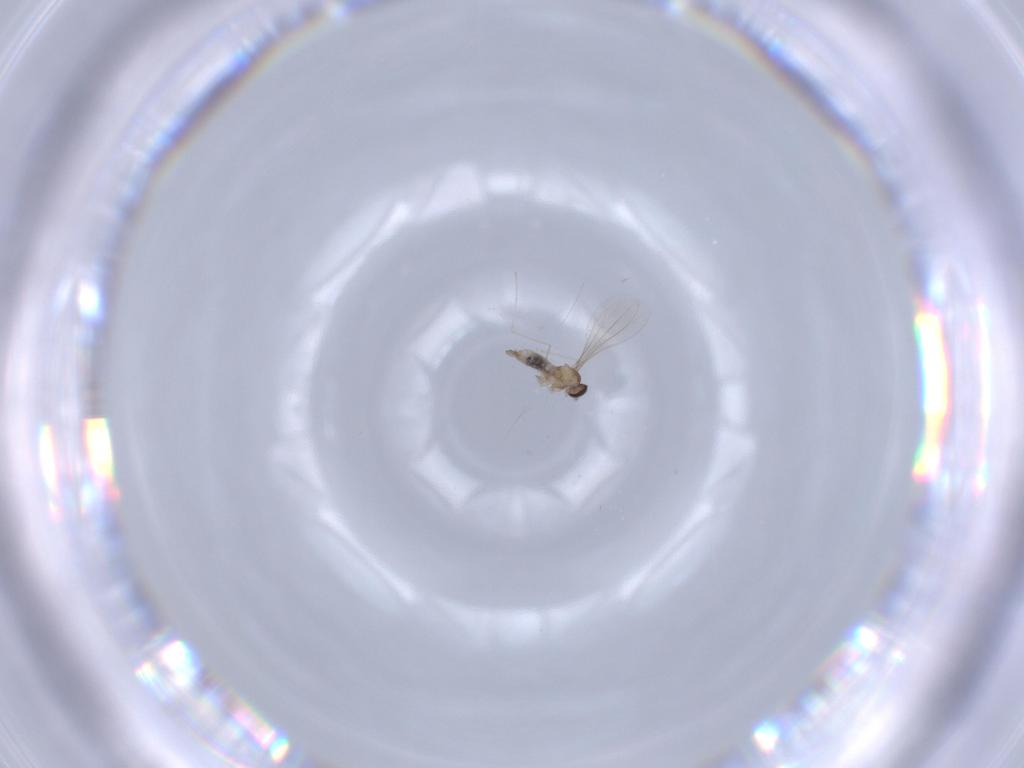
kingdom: Animalia
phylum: Arthropoda
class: Insecta
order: Diptera
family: Cecidomyiidae
